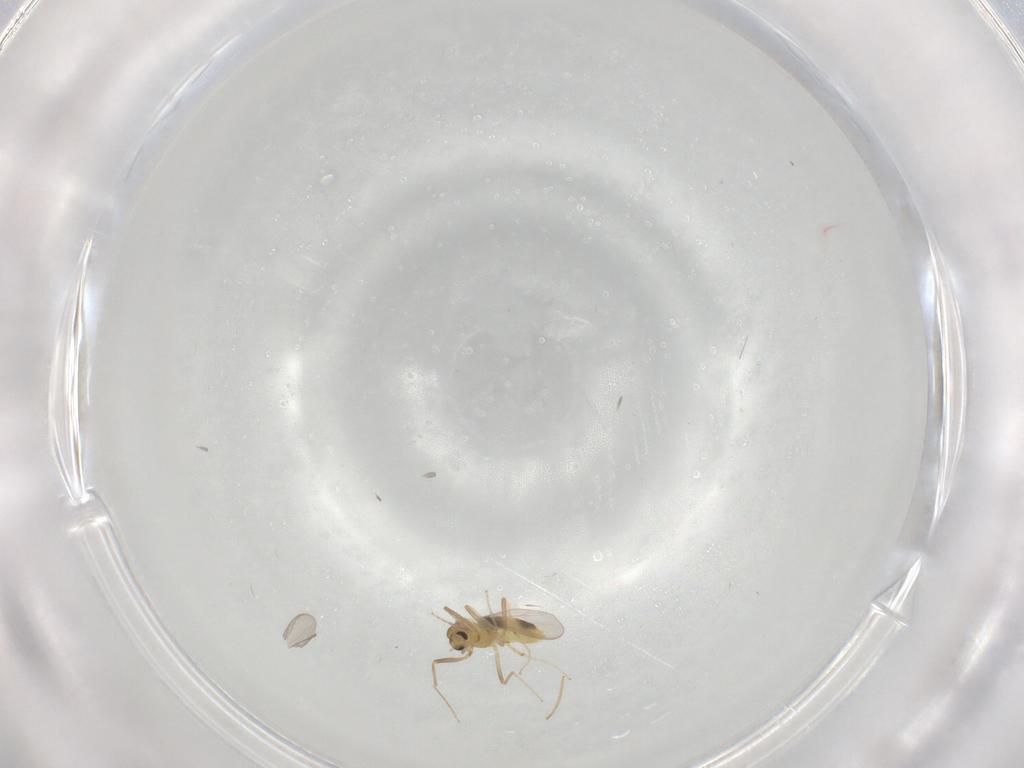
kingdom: Animalia
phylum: Arthropoda
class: Insecta
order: Diptera
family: Chironomidae
